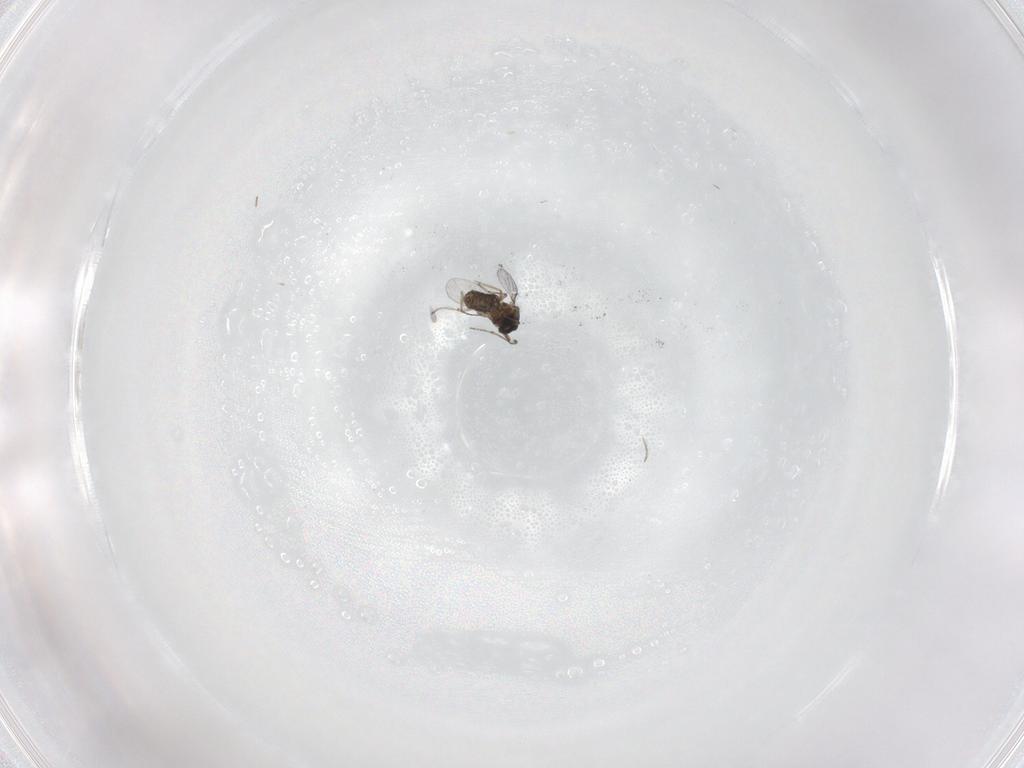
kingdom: Animalia
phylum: Arthropoda
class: Insecta
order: Diptera
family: Ceratopogonidae
